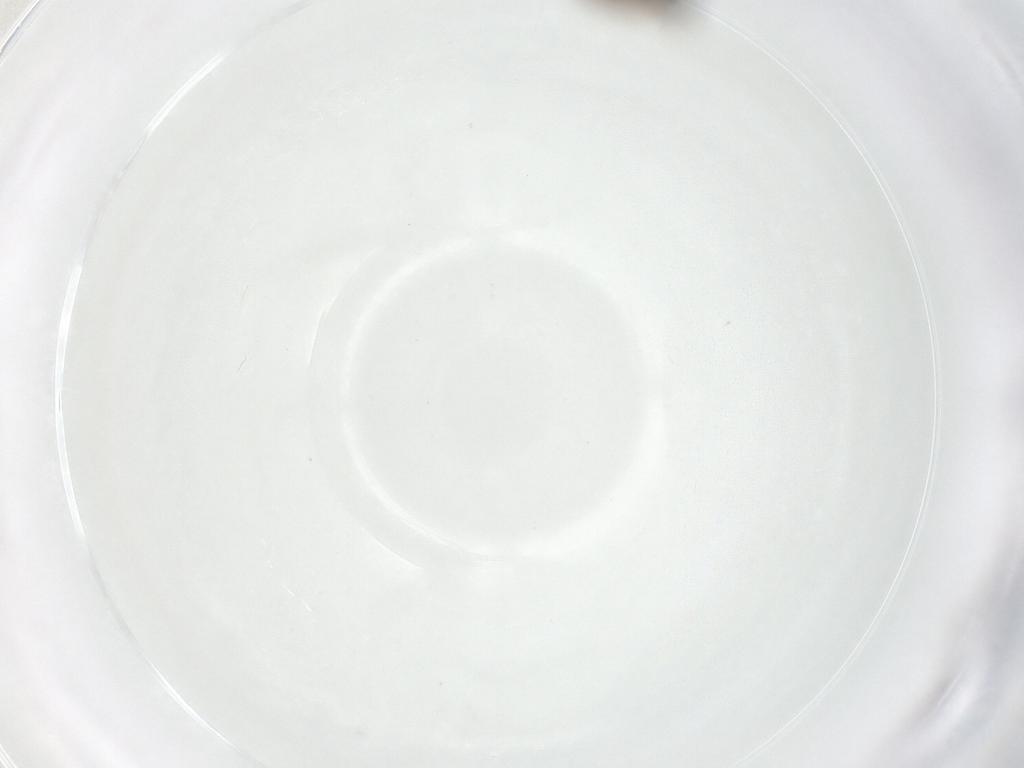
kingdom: Animalia
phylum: Arthropoda
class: Insecta
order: Diptera
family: Sciaridae
